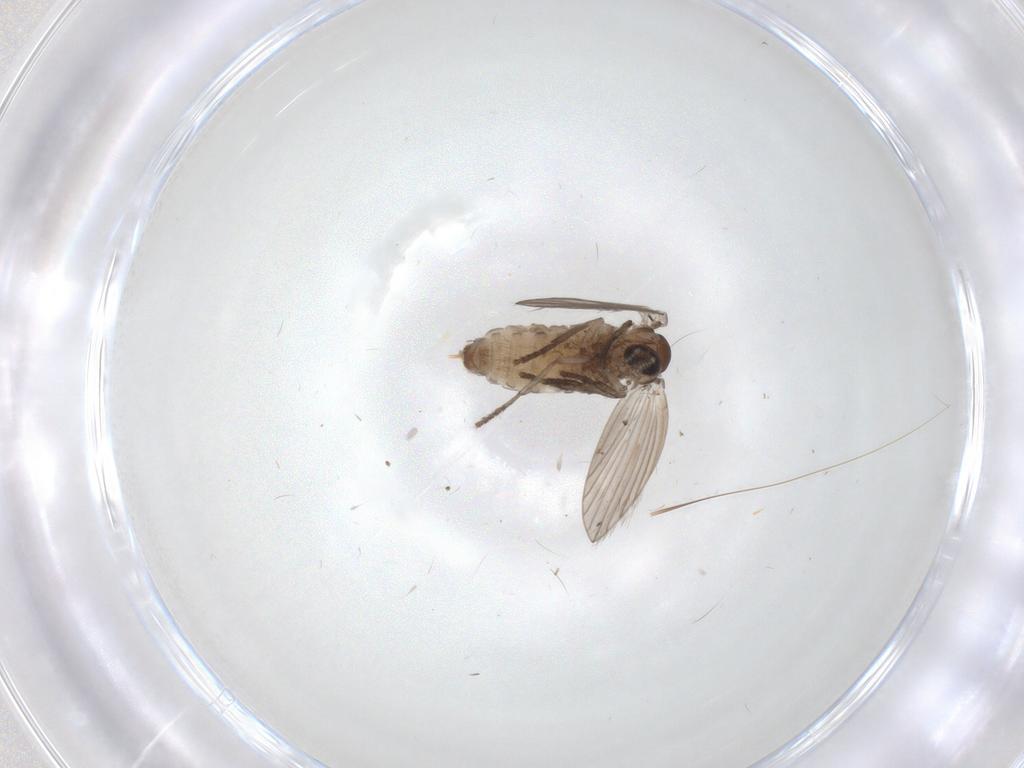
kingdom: Animalia
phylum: Arthropoda
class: Insecta
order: Diptera
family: Psychodidae
